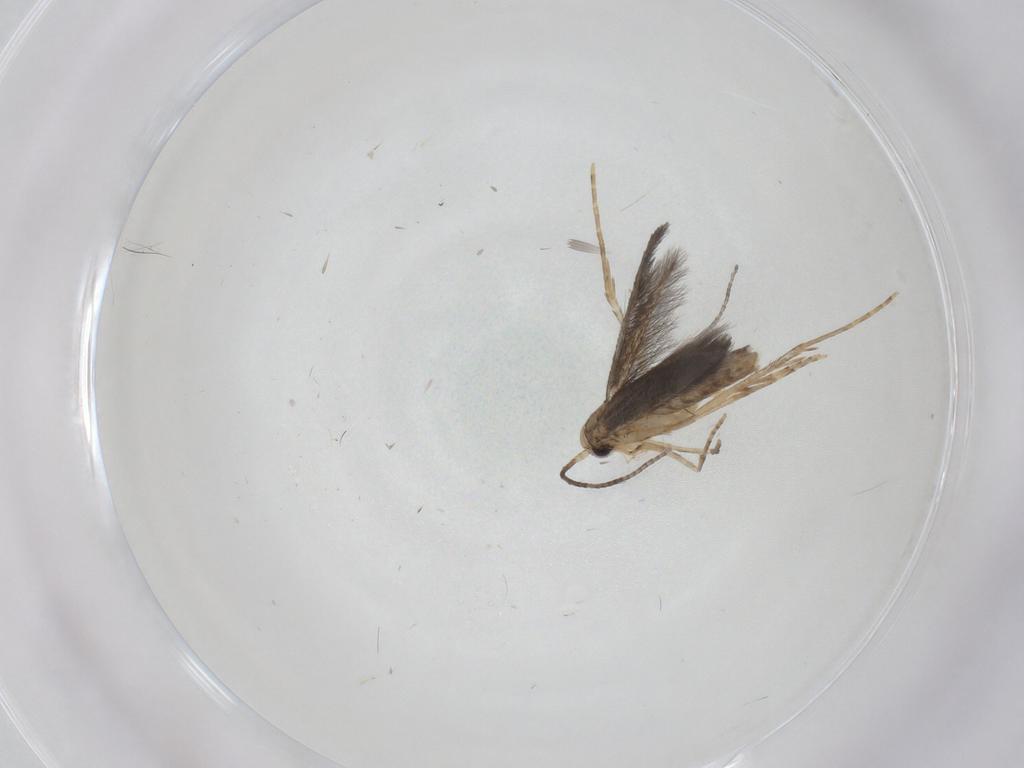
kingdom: Animalia
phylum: Arthropoda
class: Insecta
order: Lepidoptera
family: Gracillariidae
